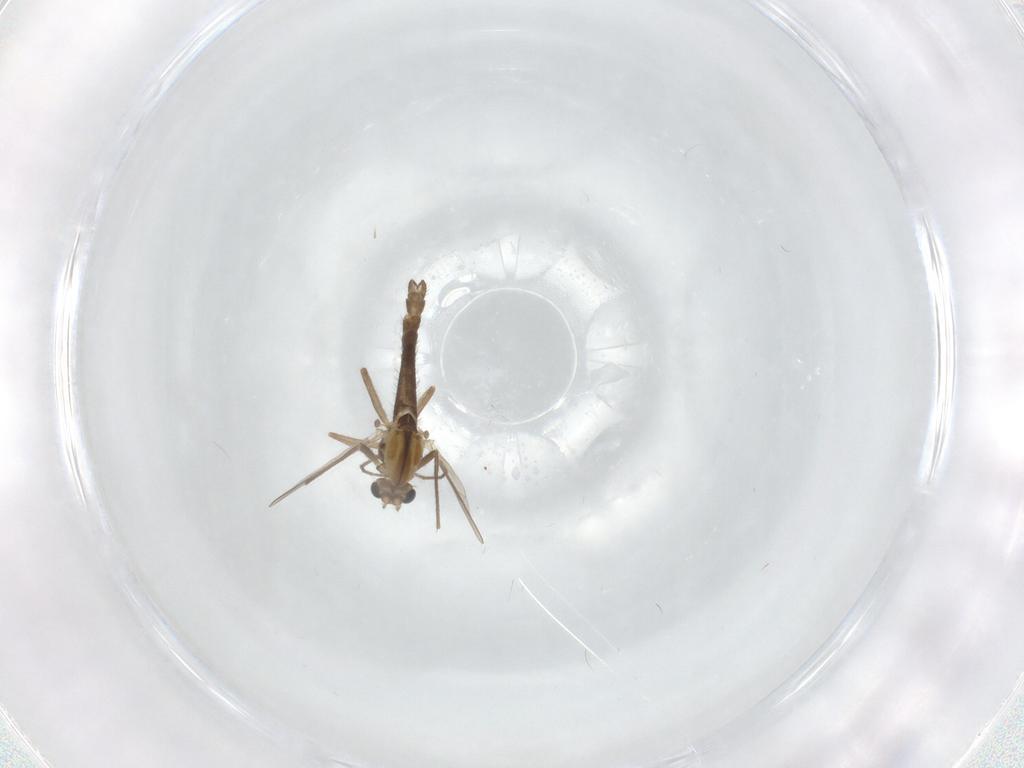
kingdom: Animalia
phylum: Arthropoda
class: Insecta
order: Diptera
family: Chironomidae
